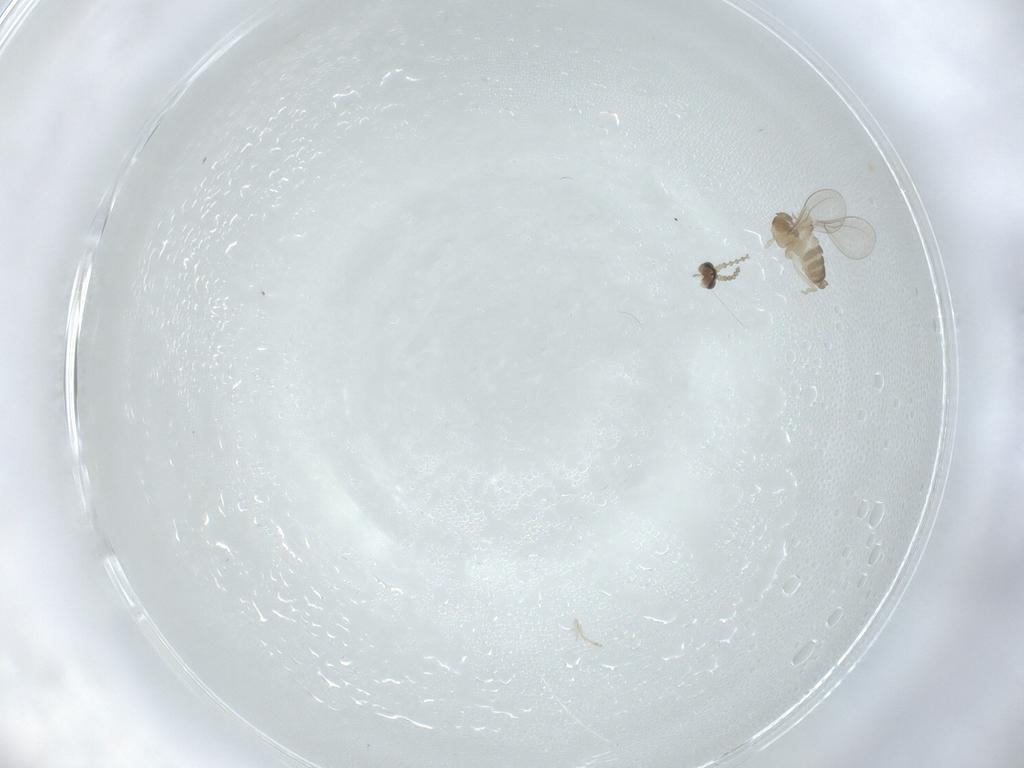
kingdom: Animalia
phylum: Arthropoda
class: Insecta
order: Diptera
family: Cecidomyiidae
